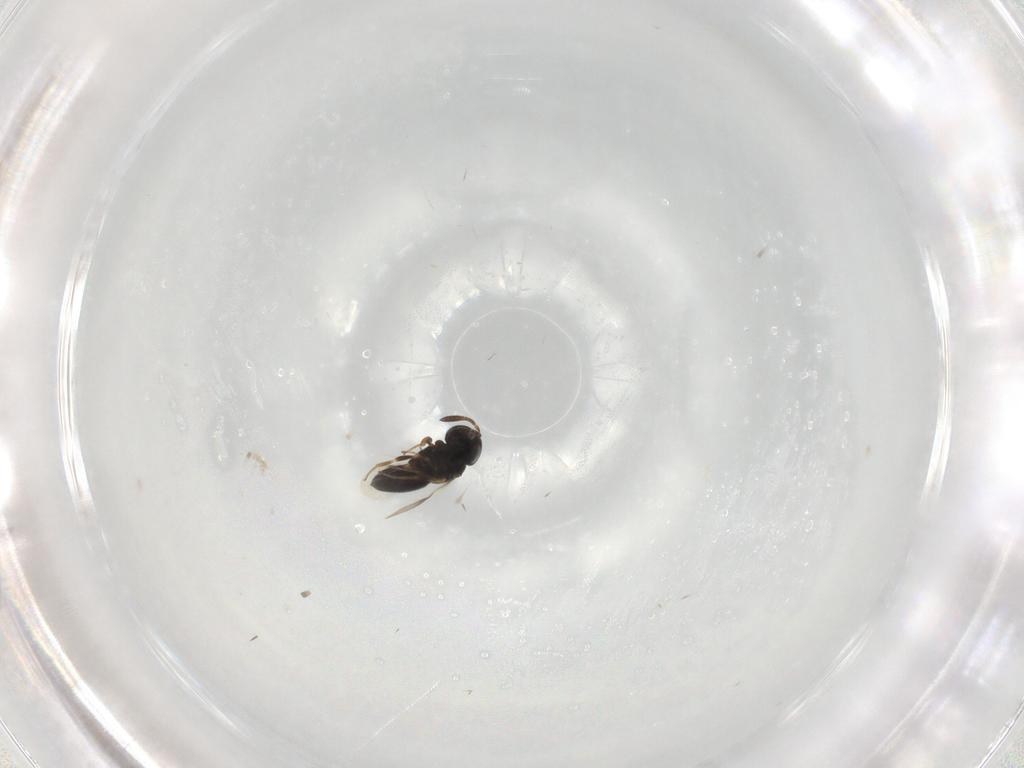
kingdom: Animalia
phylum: Arthropoda
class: Insecta
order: Hymenoptera
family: Scelionidae
